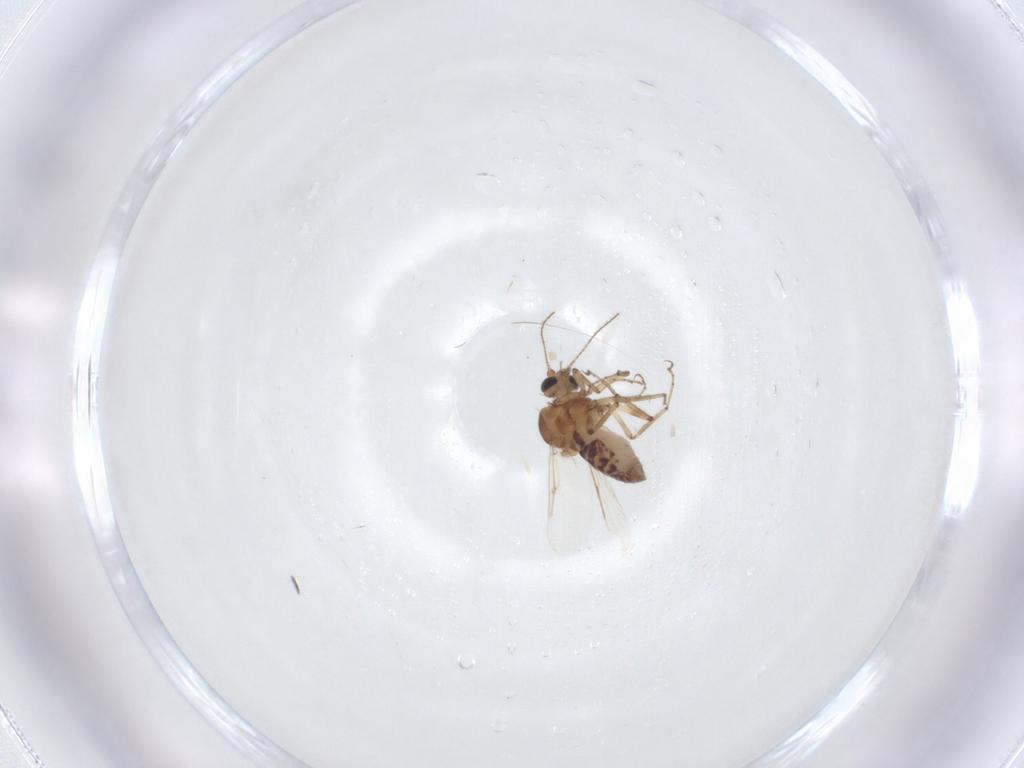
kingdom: Animalia
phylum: Arthropoda
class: Insecta
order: Diptera
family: Ceratopogonidae
